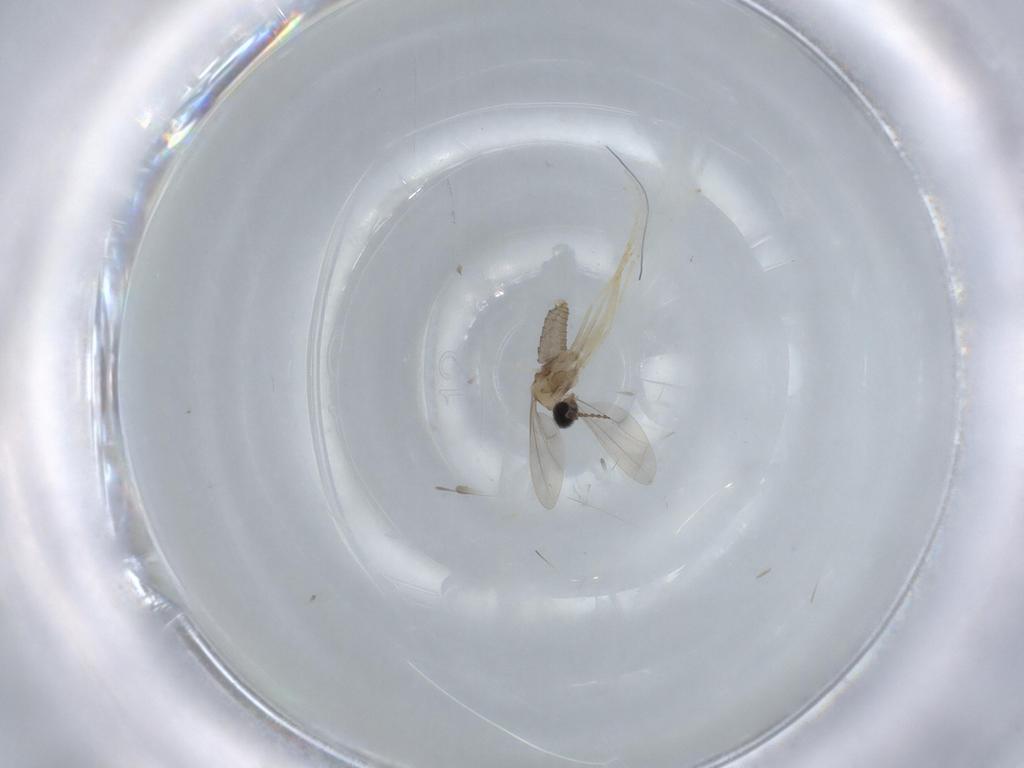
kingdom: Animalia
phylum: Arthropoda
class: Insecta
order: Diptera
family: Cecidomyiidae
